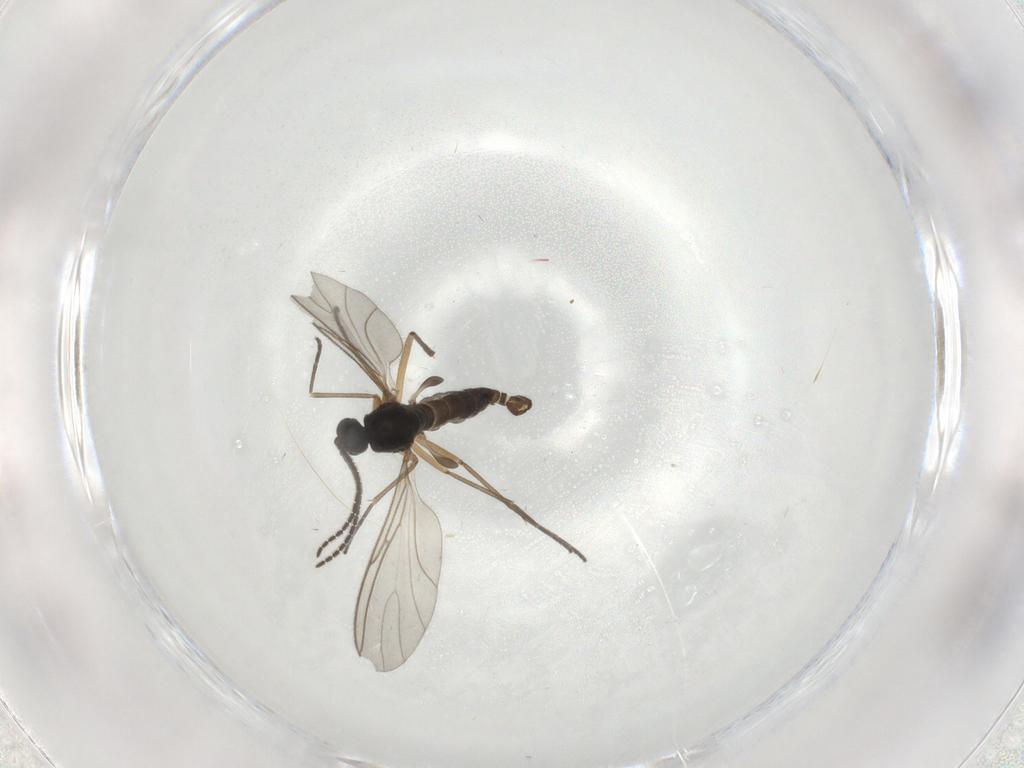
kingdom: Animalia
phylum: Arthropoda
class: Insecta
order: Diptera
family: Sciaridae
